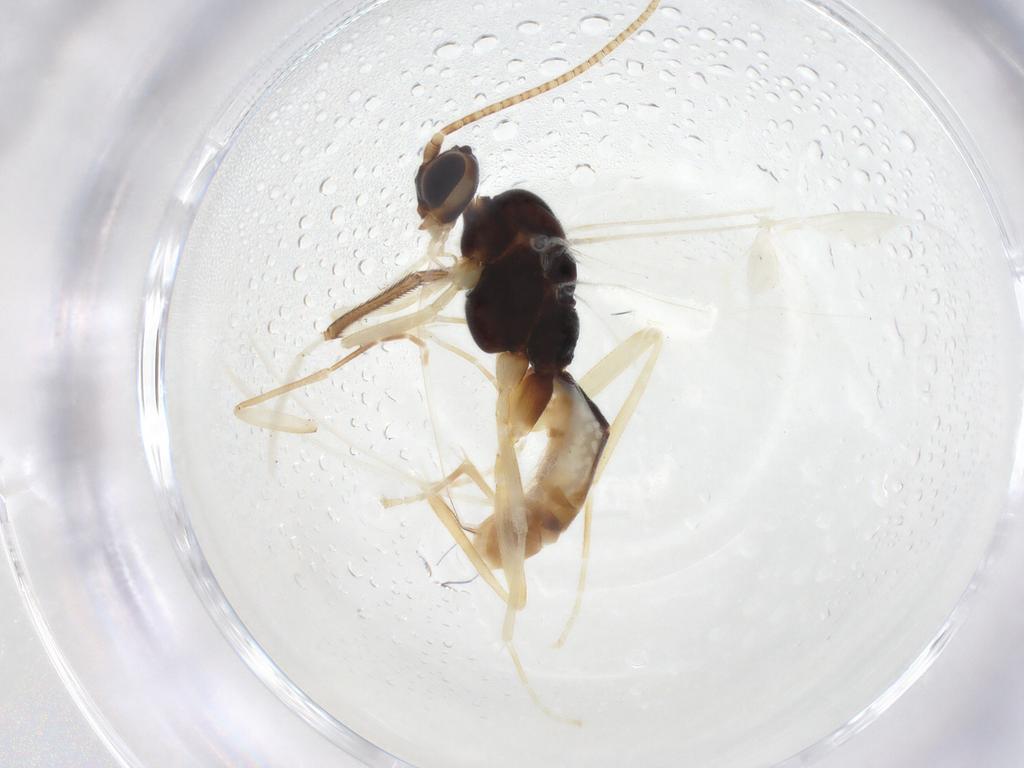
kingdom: Animalia
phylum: Arthropoda
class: Insecta
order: Hymenoptera
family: Braconidae
